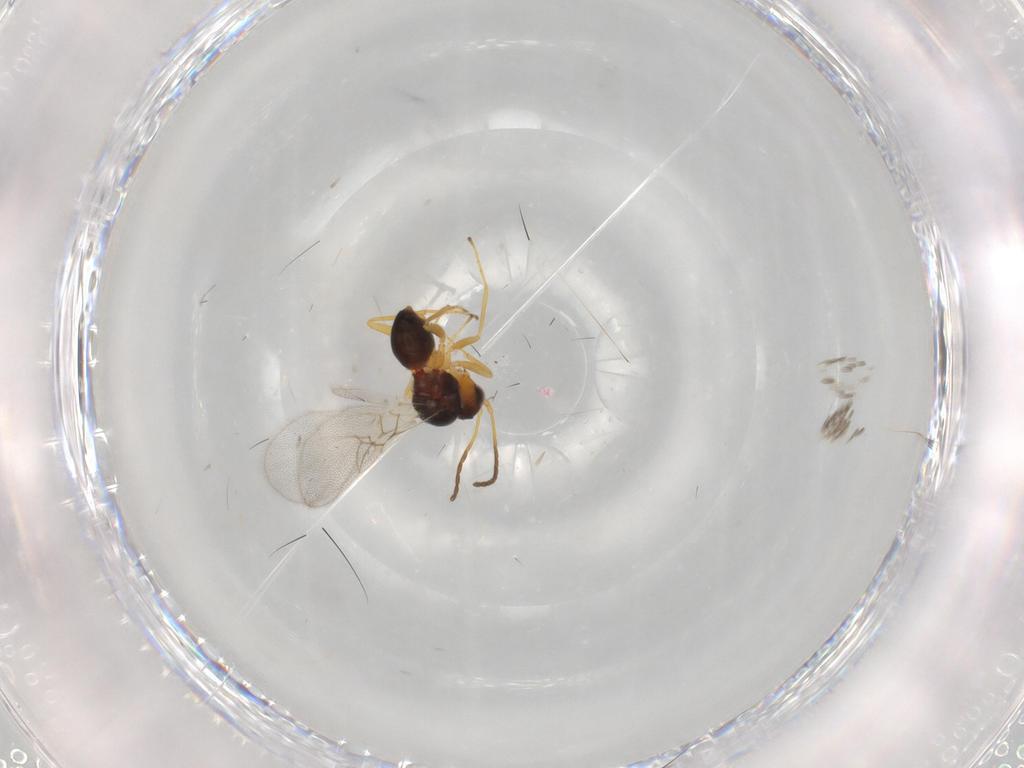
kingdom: Animalia
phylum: Arthropoda
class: Insecta
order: Hymenoptera
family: Figitidae
